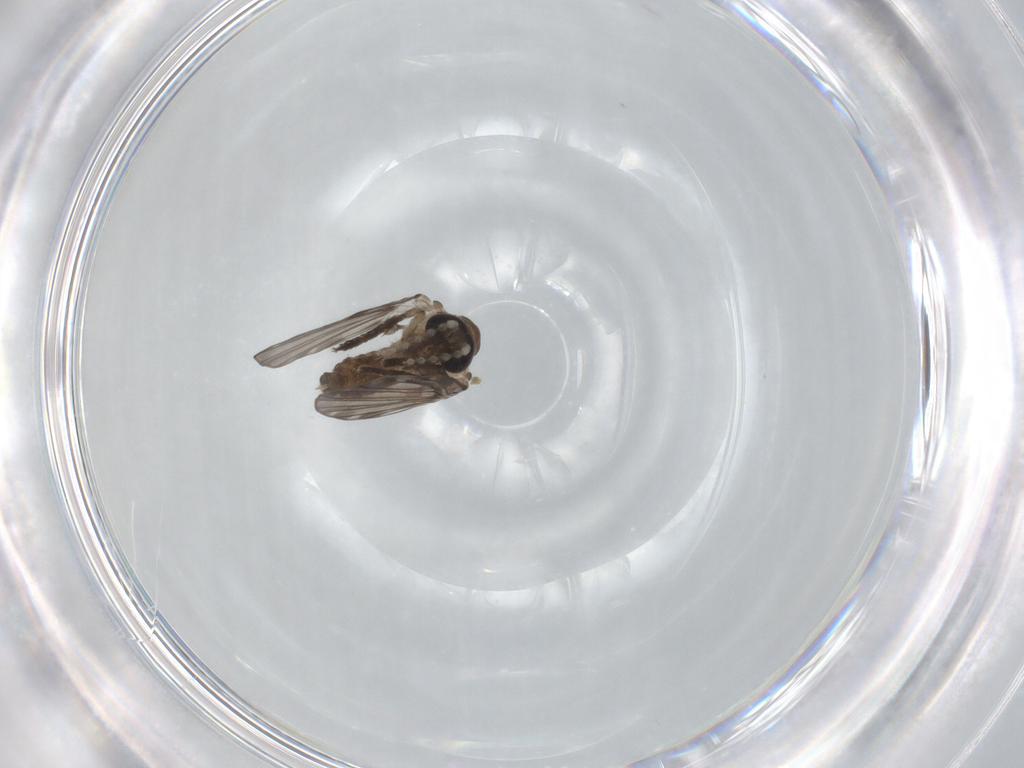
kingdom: Animalia
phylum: Arthropoda
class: Insecta
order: Diptera
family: Psychodidae
